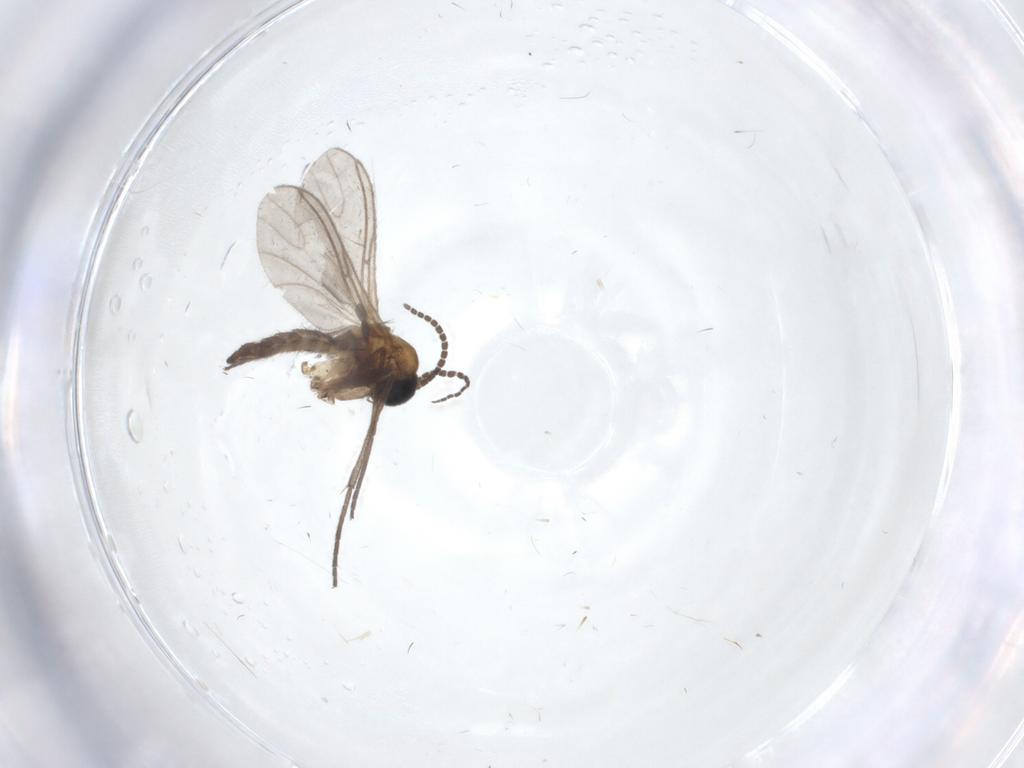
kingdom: Animalia
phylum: Arthropoda
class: Insecta
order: Diptera
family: Sciaridae
